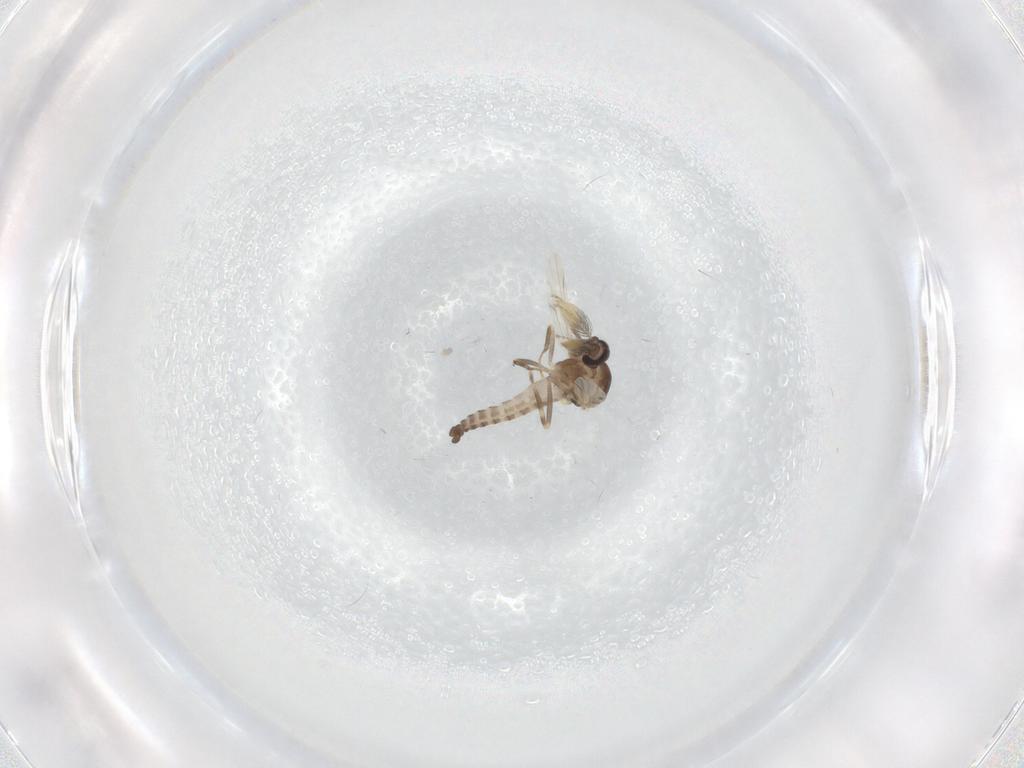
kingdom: Animalia
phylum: Arthropoda
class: Insecta
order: Diptera
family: Ceratopogonidae
